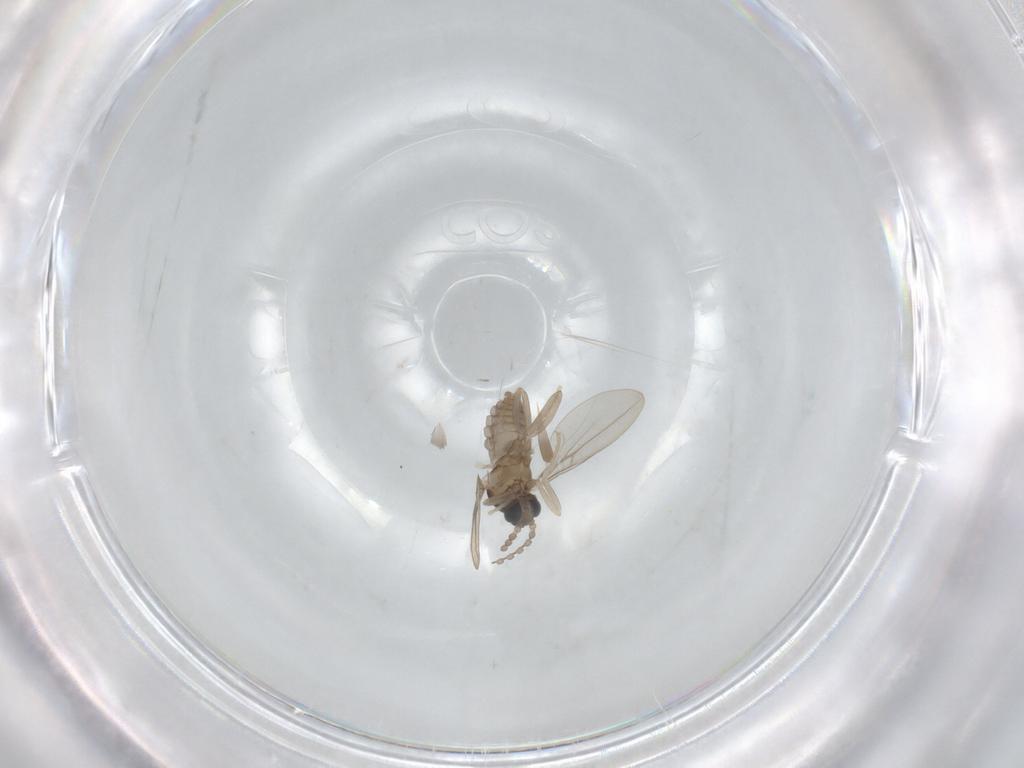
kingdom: Animalia
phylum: Arthropoda
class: Insecta
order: Diptera
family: Cecidomyiidae
